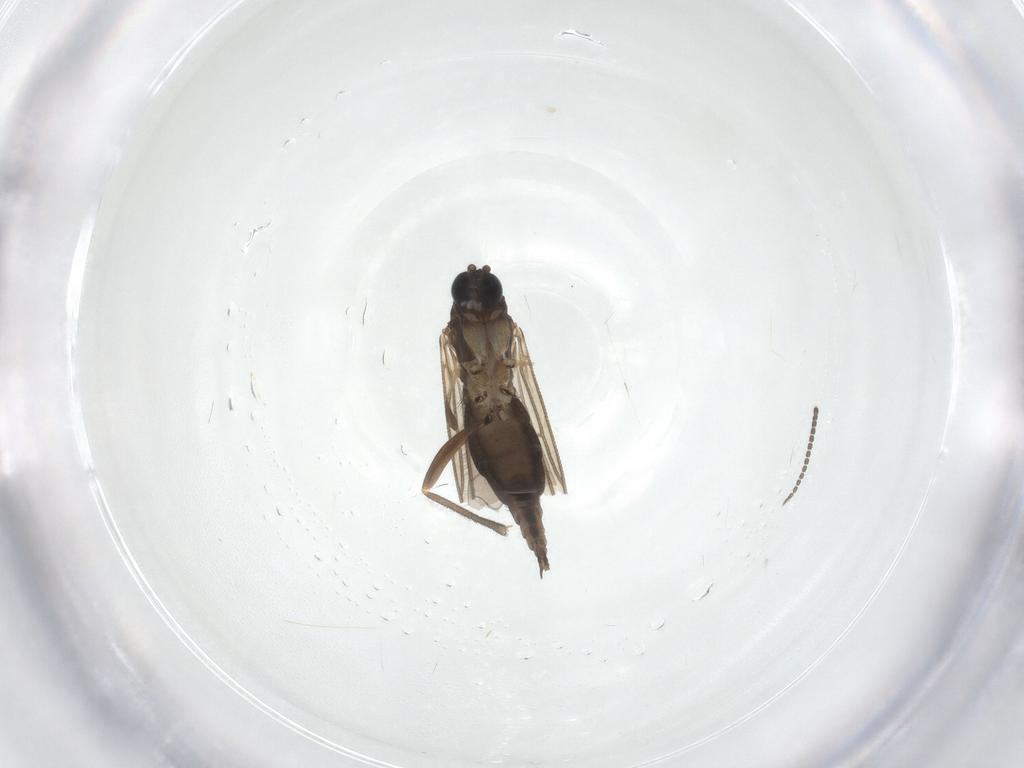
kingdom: Animalia
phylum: Arthropoda
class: Insecta
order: Diptera
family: Sciaridae
